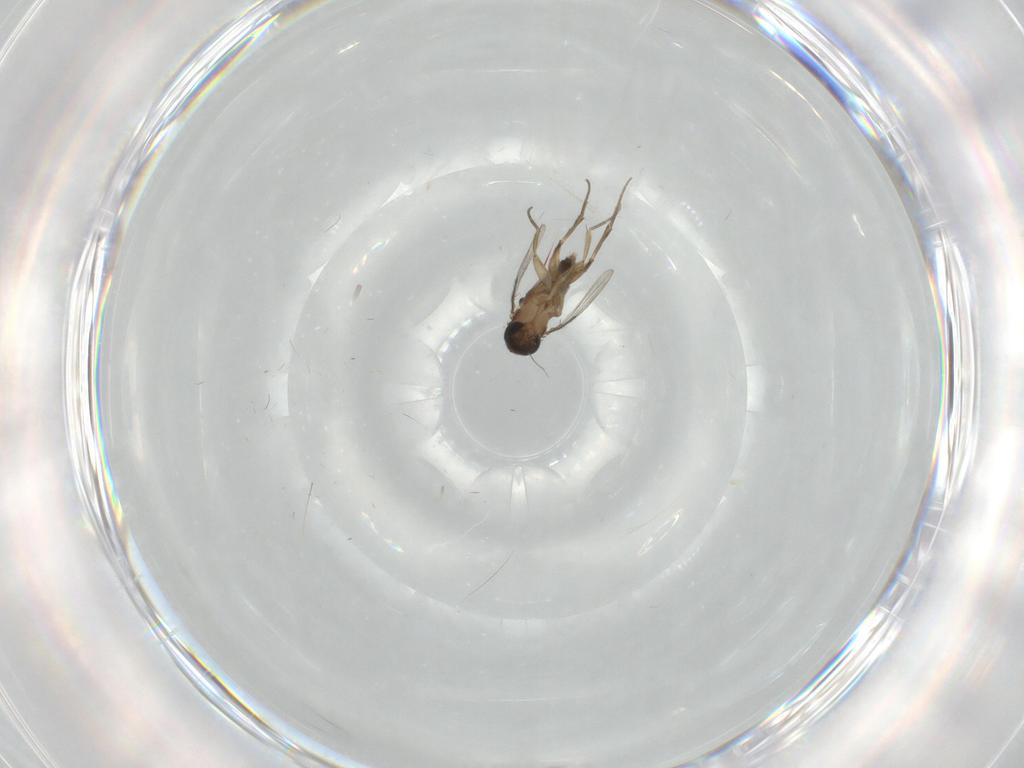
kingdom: Animalia
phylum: Arthropoda
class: Insecta
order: Diptera
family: Cecidomyiidae
